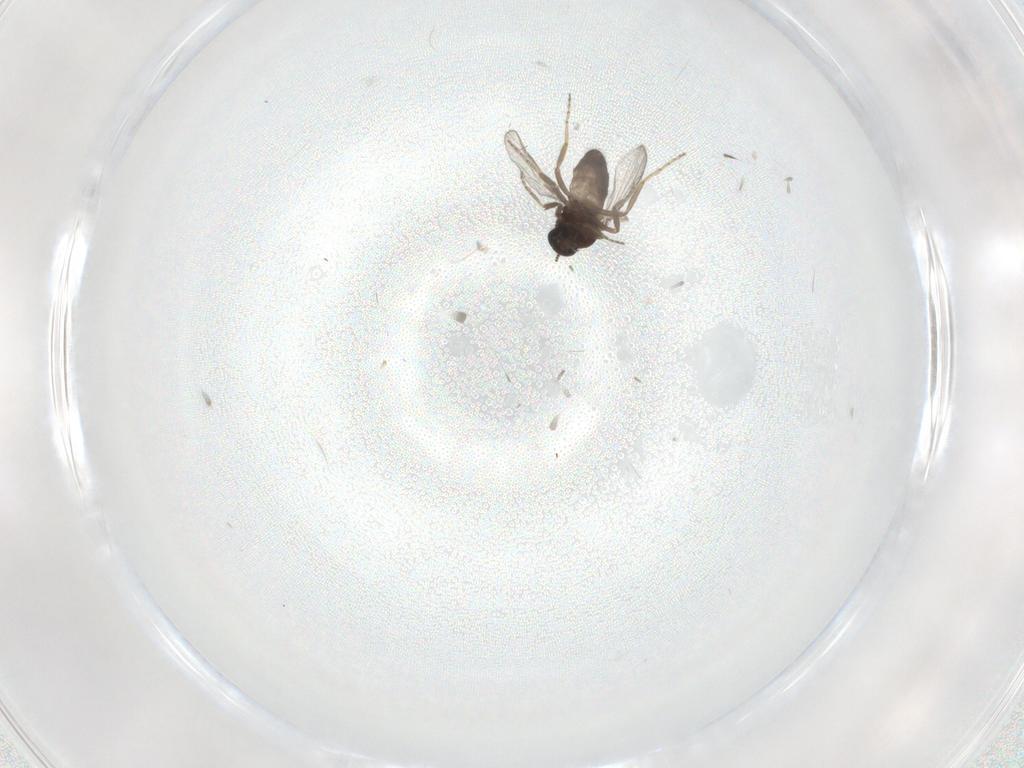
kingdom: Animalia
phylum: Arthropoda
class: Insecta
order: Diptera
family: Ceratopogonidae
